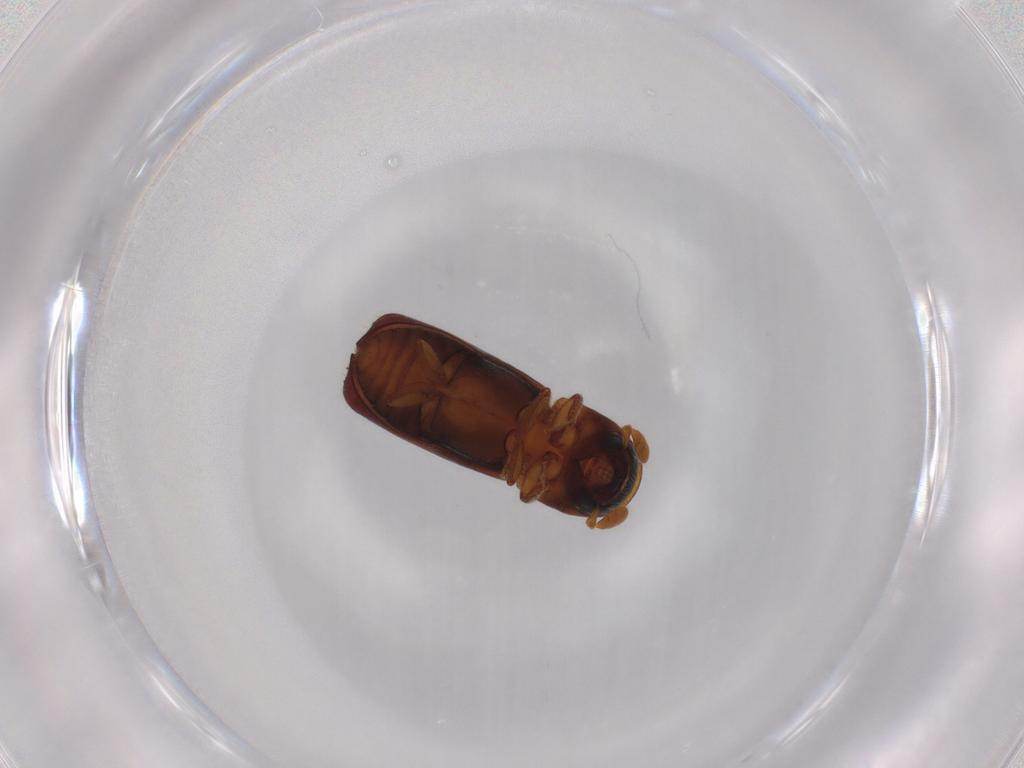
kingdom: Animalia
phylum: Arthropoda
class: Insecta
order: Coleoptera
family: Curculionidae
